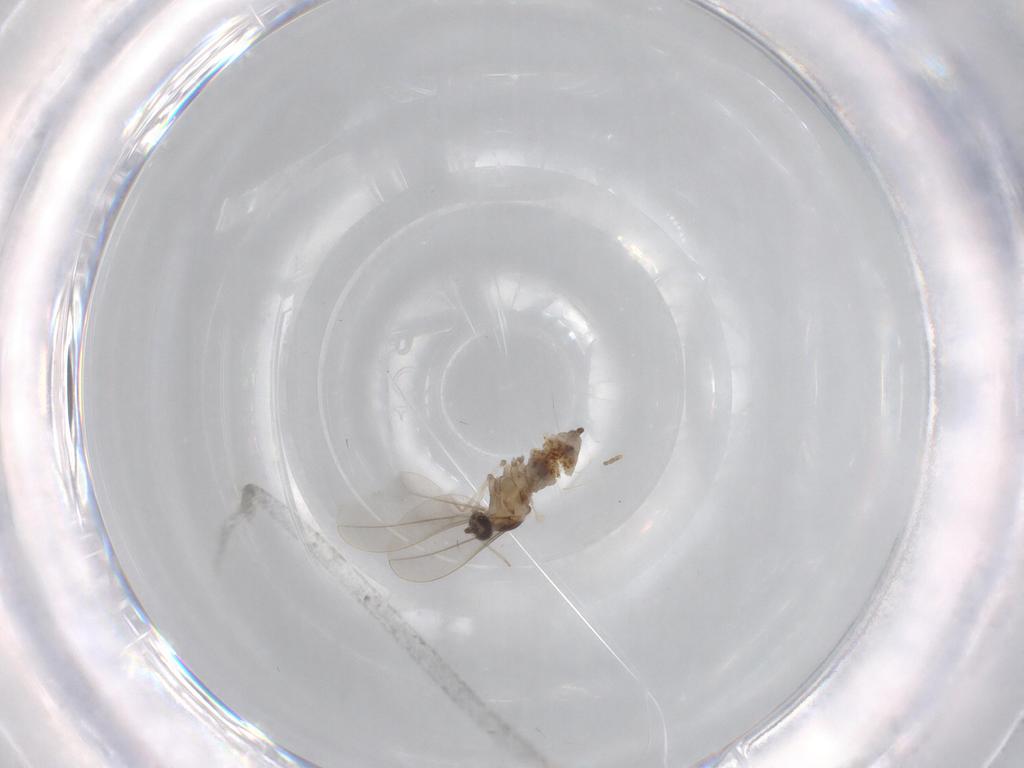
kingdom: Animalia
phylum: Arthropoda
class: Insecta
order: Diptera
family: Cecidomyiidae
